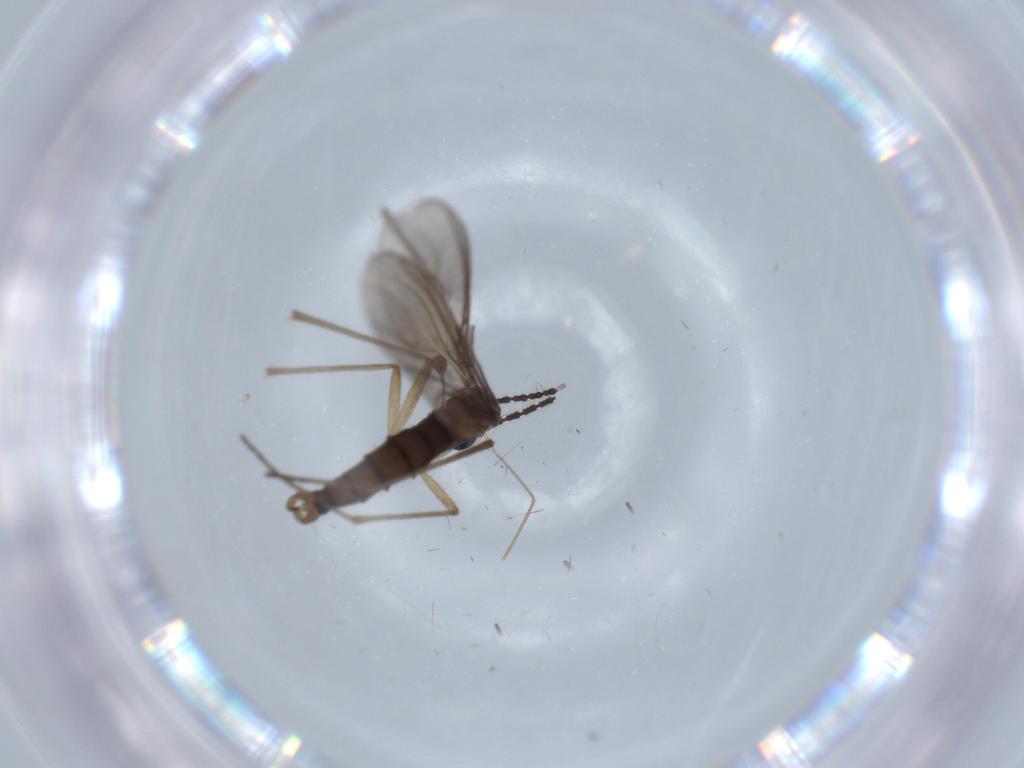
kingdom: Animalia
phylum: Arthropoda
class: Insecta
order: Diptera
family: Sciaridae
